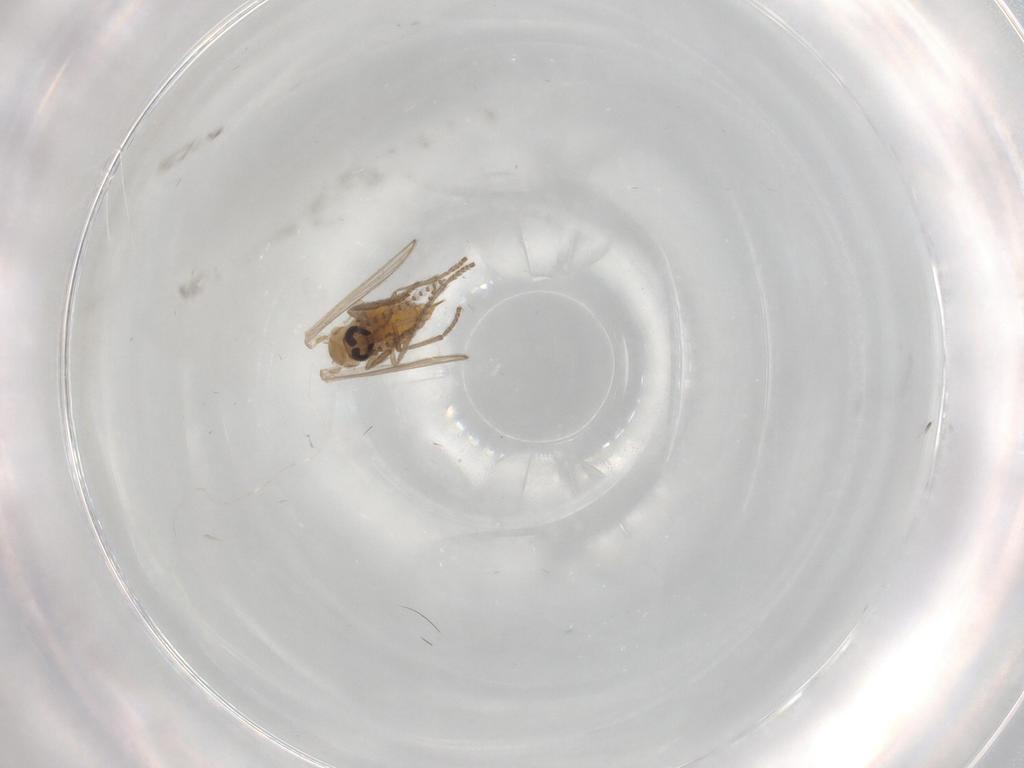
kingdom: Animalia
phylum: Arthropoda
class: Insecta
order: Diptera
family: Psychodidae
